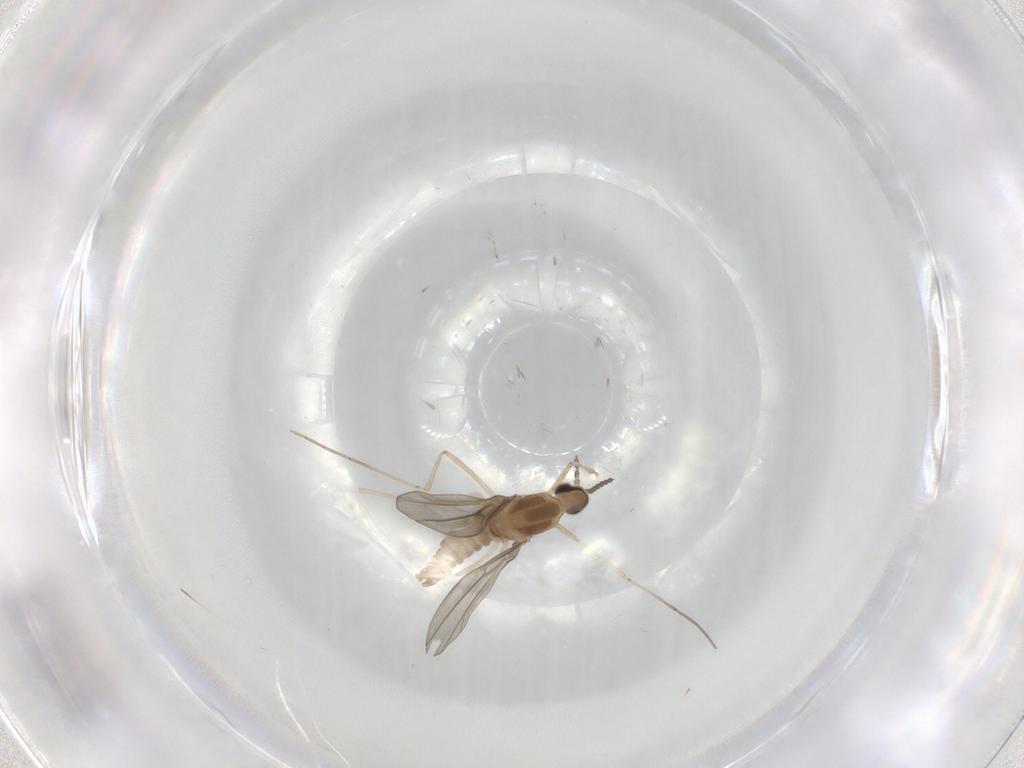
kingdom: Animalia
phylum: Arthropoda
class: Insecta
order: Diptera
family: Cecidomyiidae
